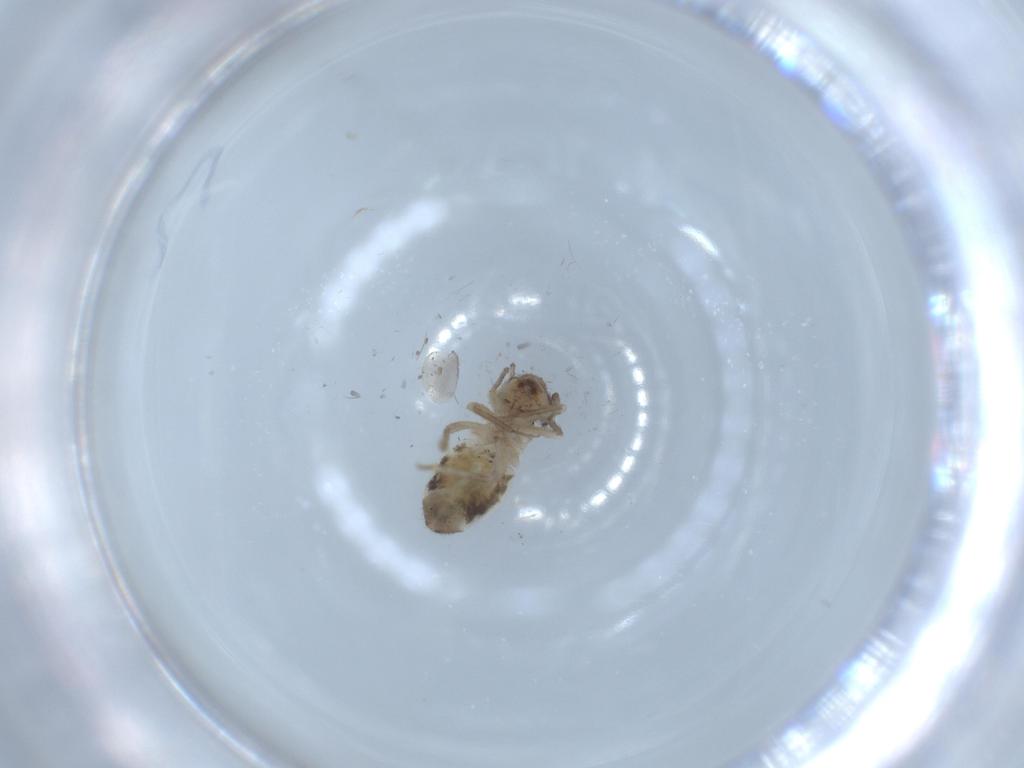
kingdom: Animalia
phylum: Arthropoda
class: Insecta
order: Psocodea
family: Lepidopsocidae
